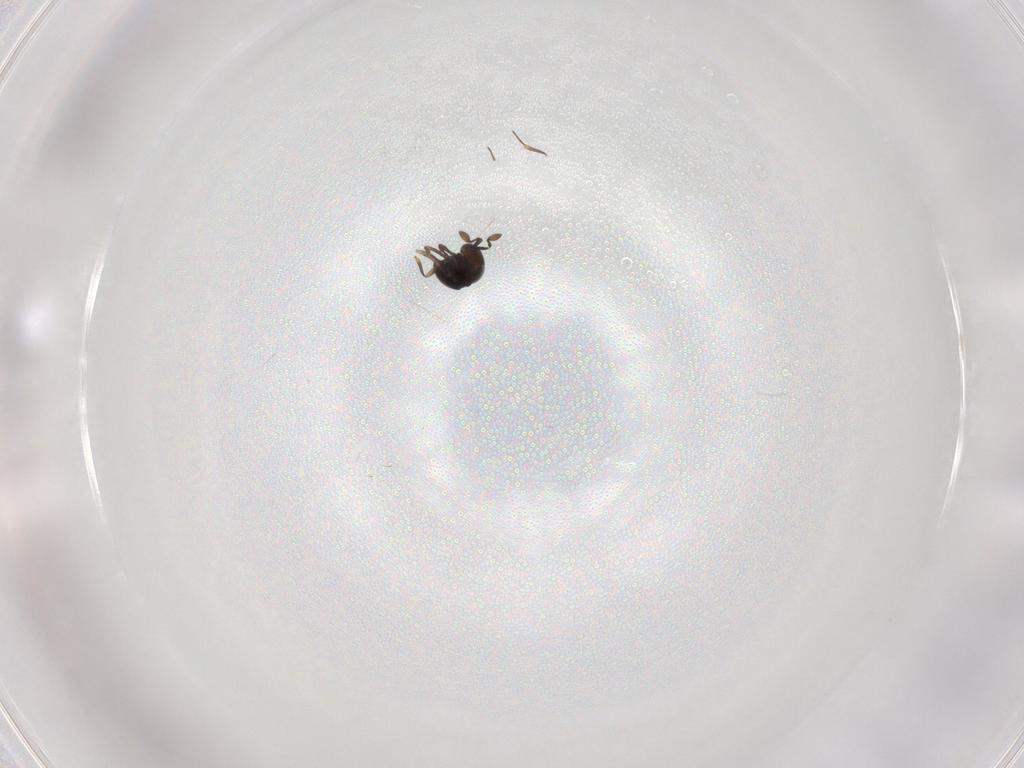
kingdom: Animalia
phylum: Arthropoda
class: Insecta
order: Hymenoptera
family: Scelionidae
